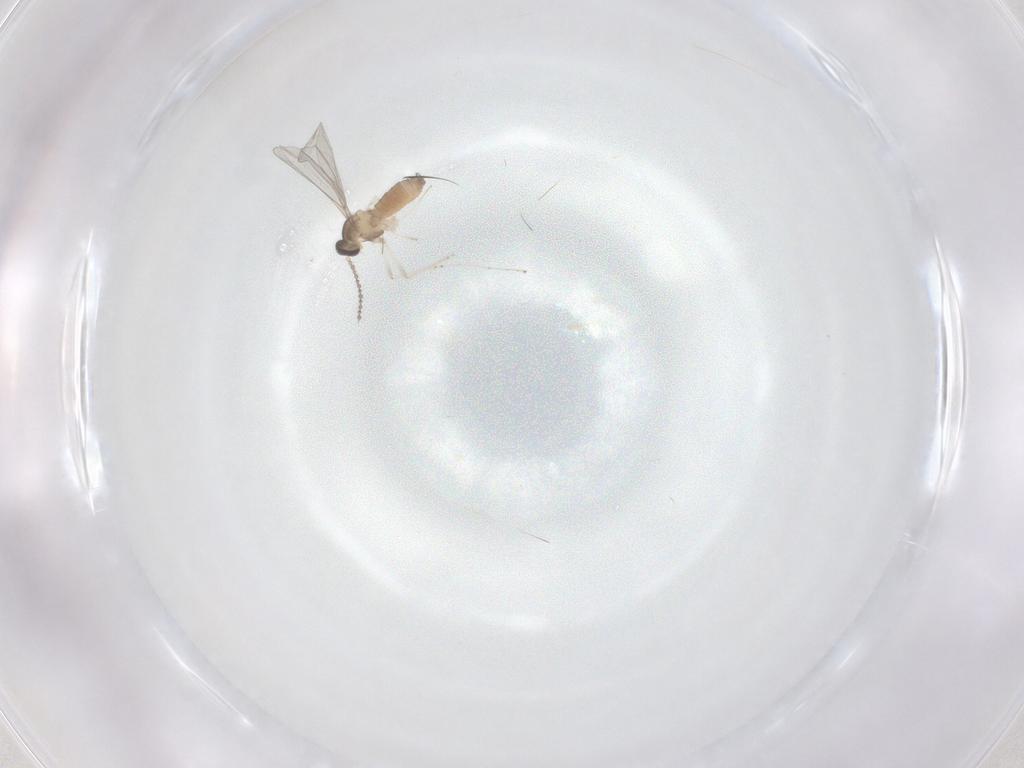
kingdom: Animalia
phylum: Arthropoda
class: Insecta
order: Diptera
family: Cecidomyiidae
